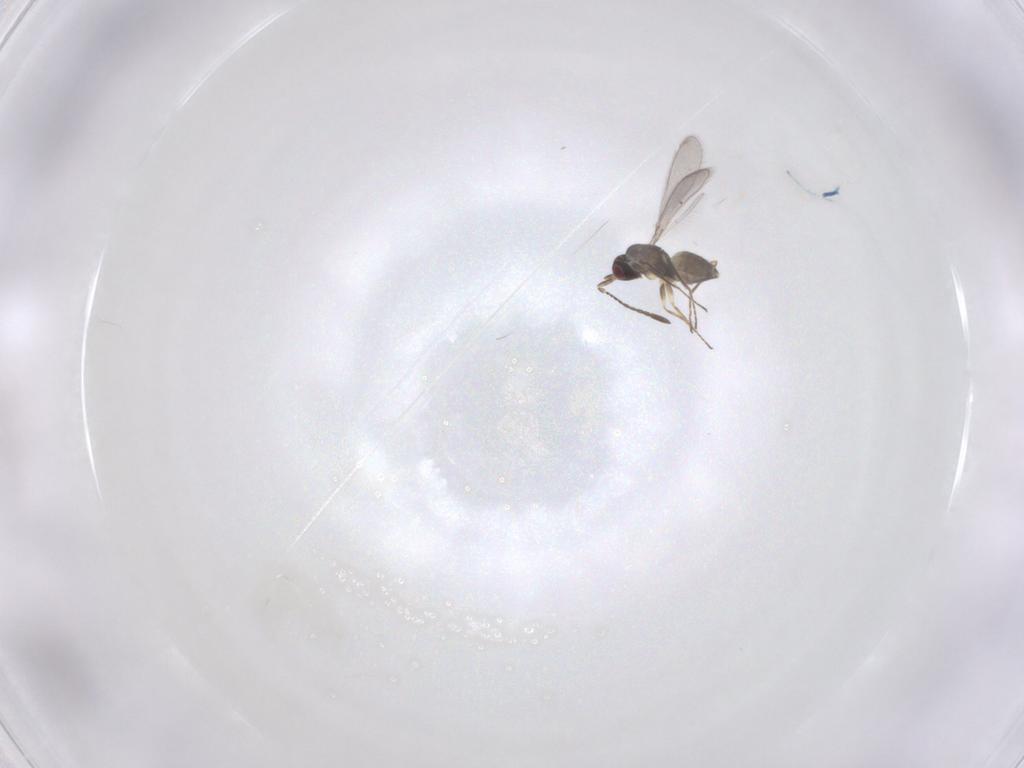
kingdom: Animalia
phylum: Arthropoda
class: Insecta
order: Hymenoptera
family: Mymaridae
